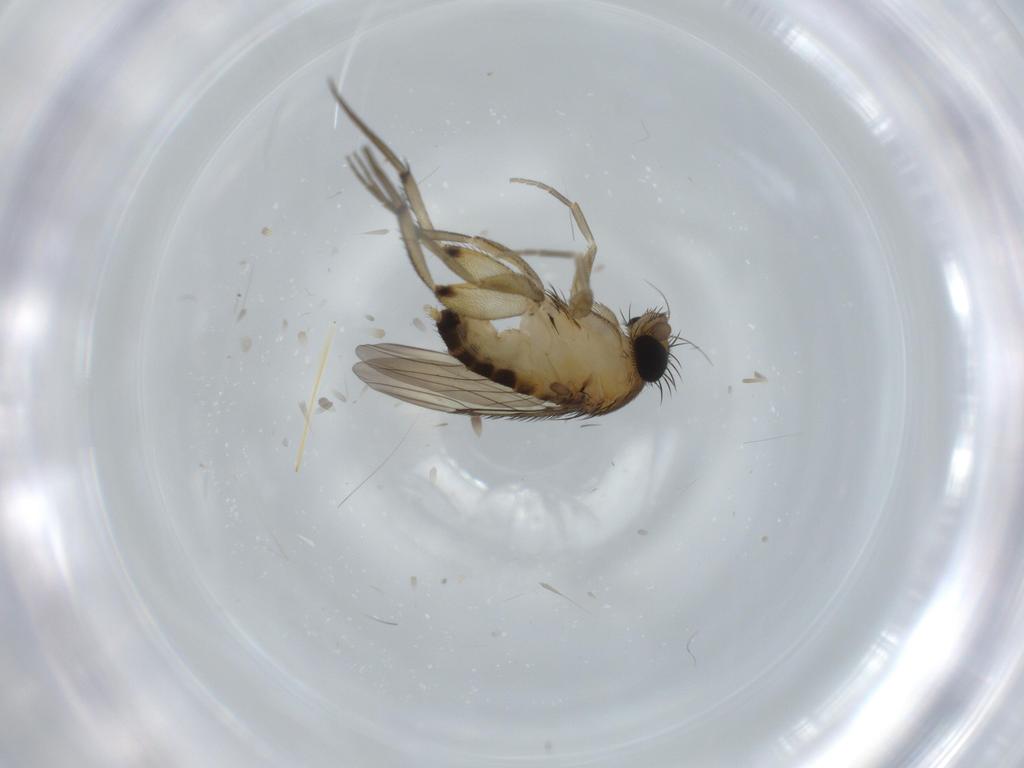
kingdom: Animalia
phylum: Arthropoda
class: Insecta
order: Diptera
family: Phoridae
